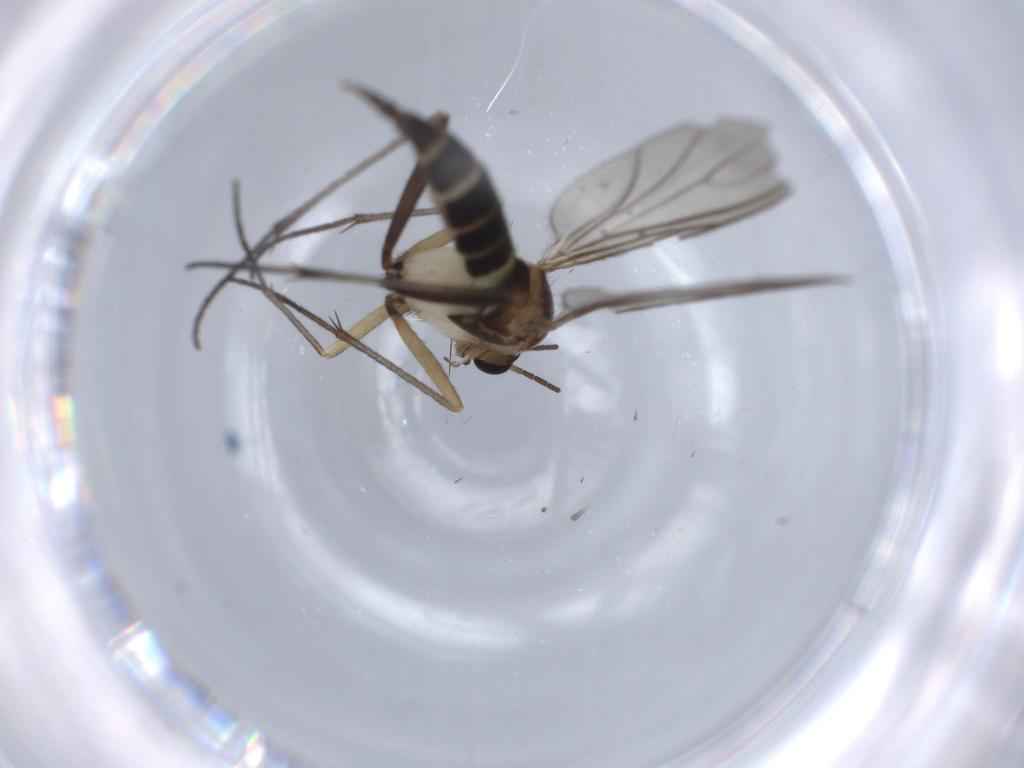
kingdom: Animalia
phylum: Arthropoda
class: Insecta
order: Diptera
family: Sciaridae
